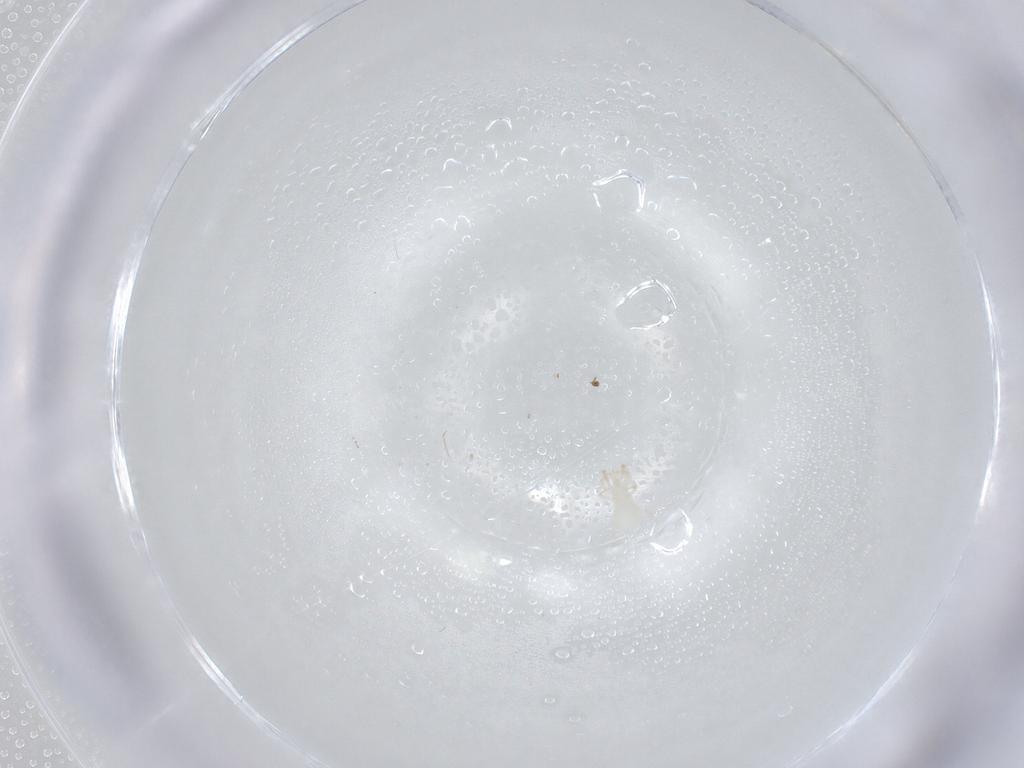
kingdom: Animalia
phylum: Arthropoda
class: Arachnida
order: Mesostigmata
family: Phytoseiidae
